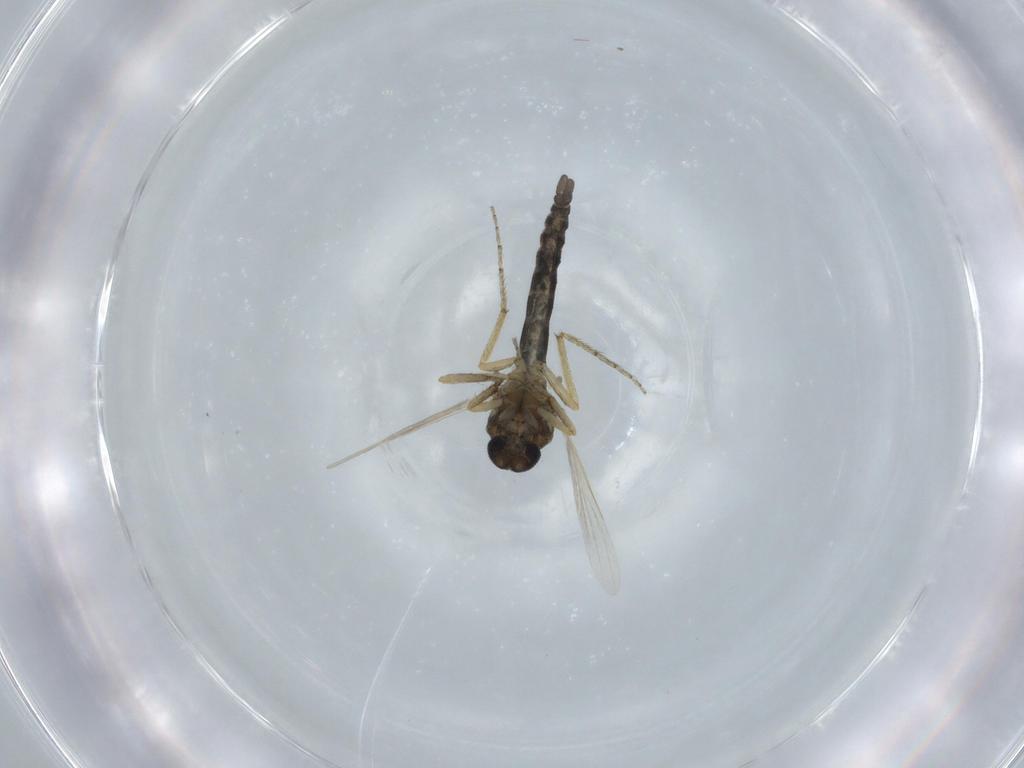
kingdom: Animalia
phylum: Arthropoda
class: Insecta
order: Diptera
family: Ceratopogonidae
